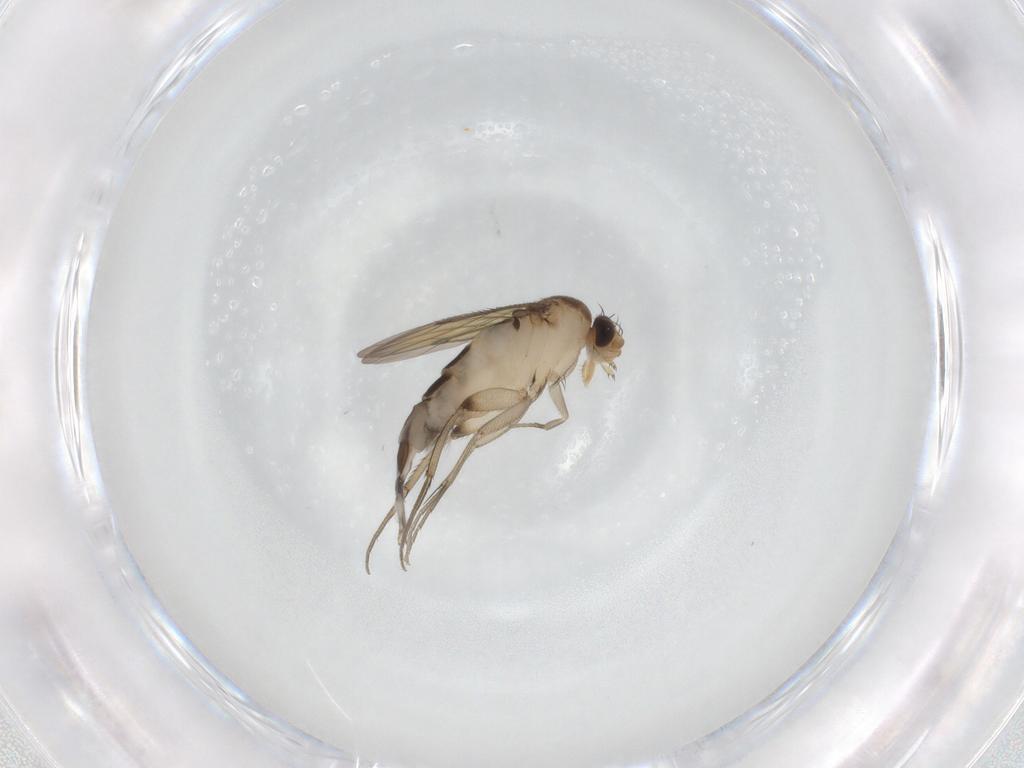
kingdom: Animalia
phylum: Arthropoda
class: Insecta
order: Diptera
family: Phoridae
